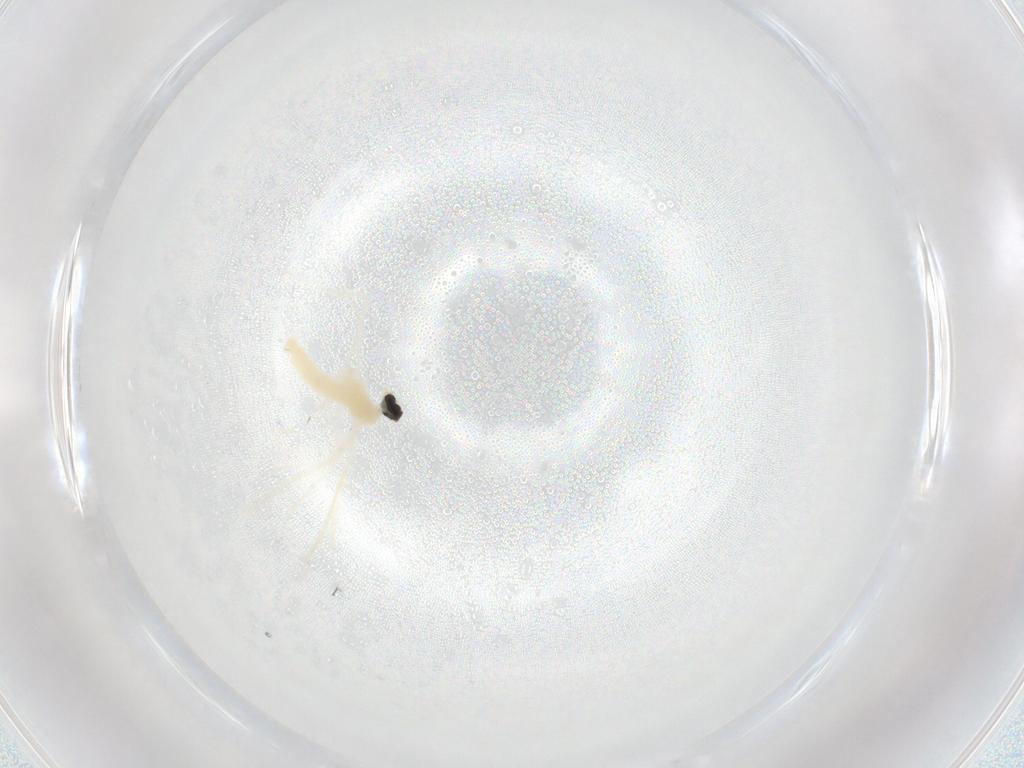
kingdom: Animalia
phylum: Arthropoda
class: Insecta
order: Diptera
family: Cecidomyiidae
